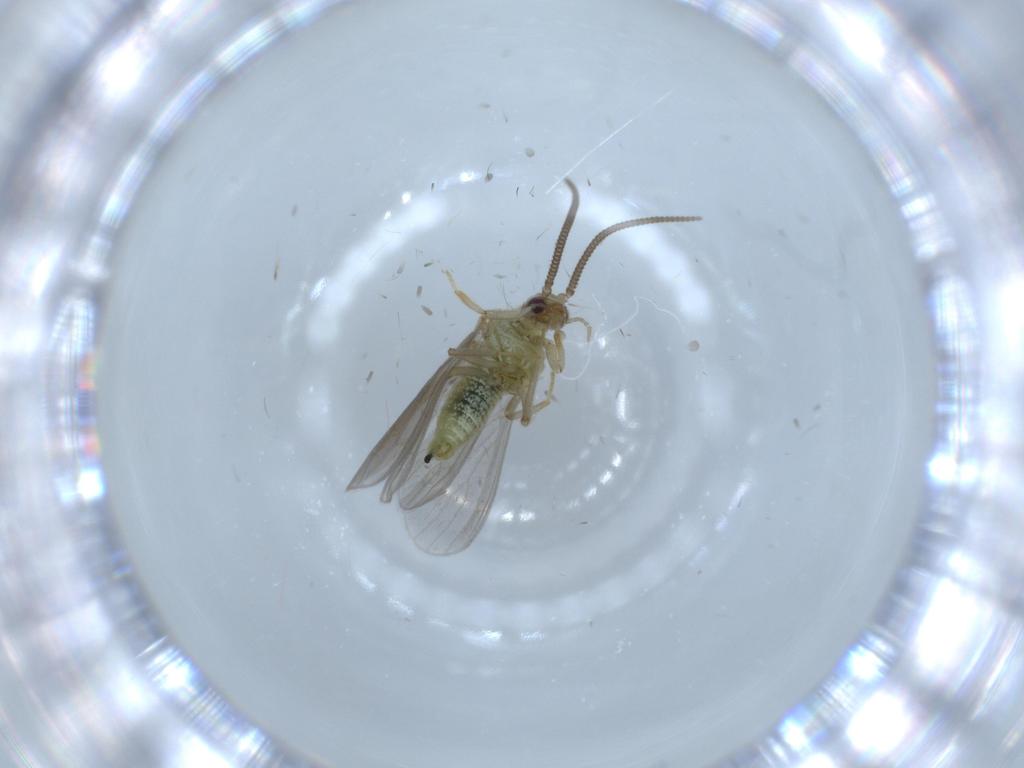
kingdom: Animalia
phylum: Arthropoda
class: Insecta
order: Neuroptera
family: Coniopterygidae
